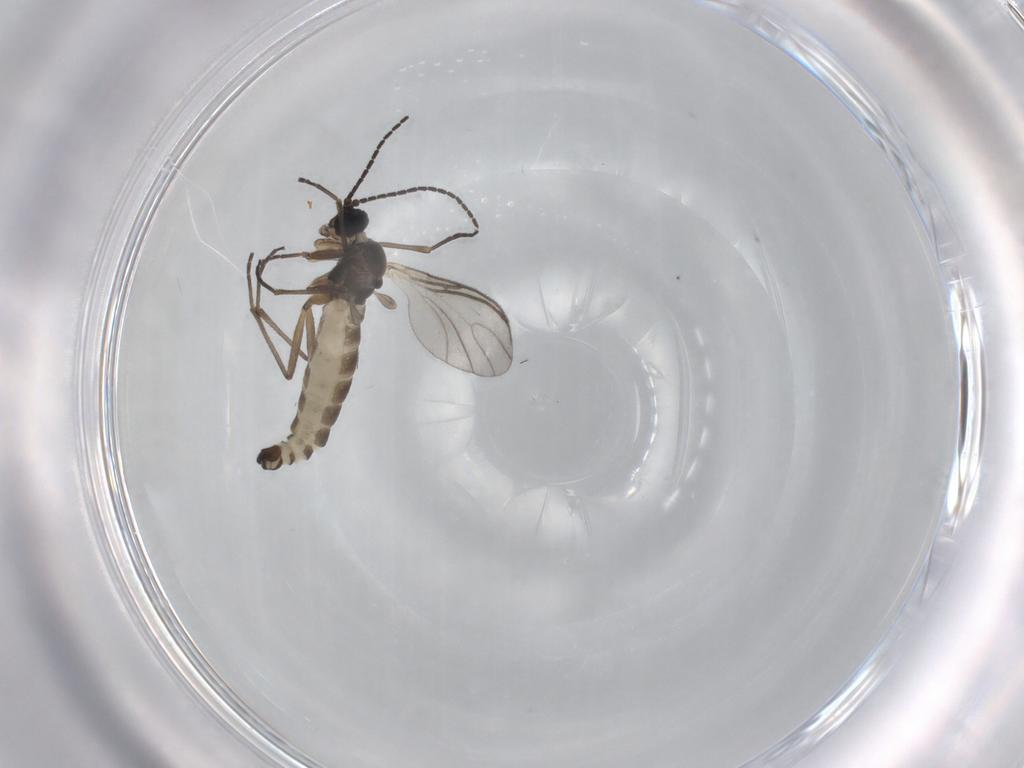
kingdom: Animalia
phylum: Arthropoda
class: Insecta
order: Diptera
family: Sciaridae
